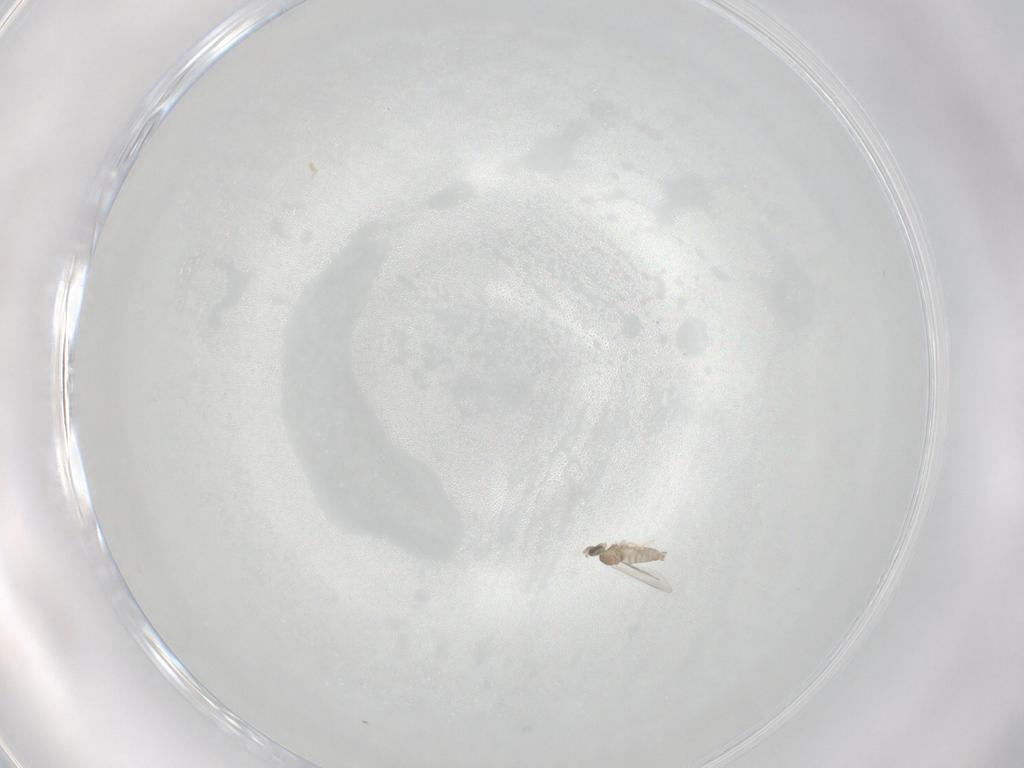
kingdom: Animalia
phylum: Arthropoda
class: Insecta
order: Diptera
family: Cecidomyiidae
